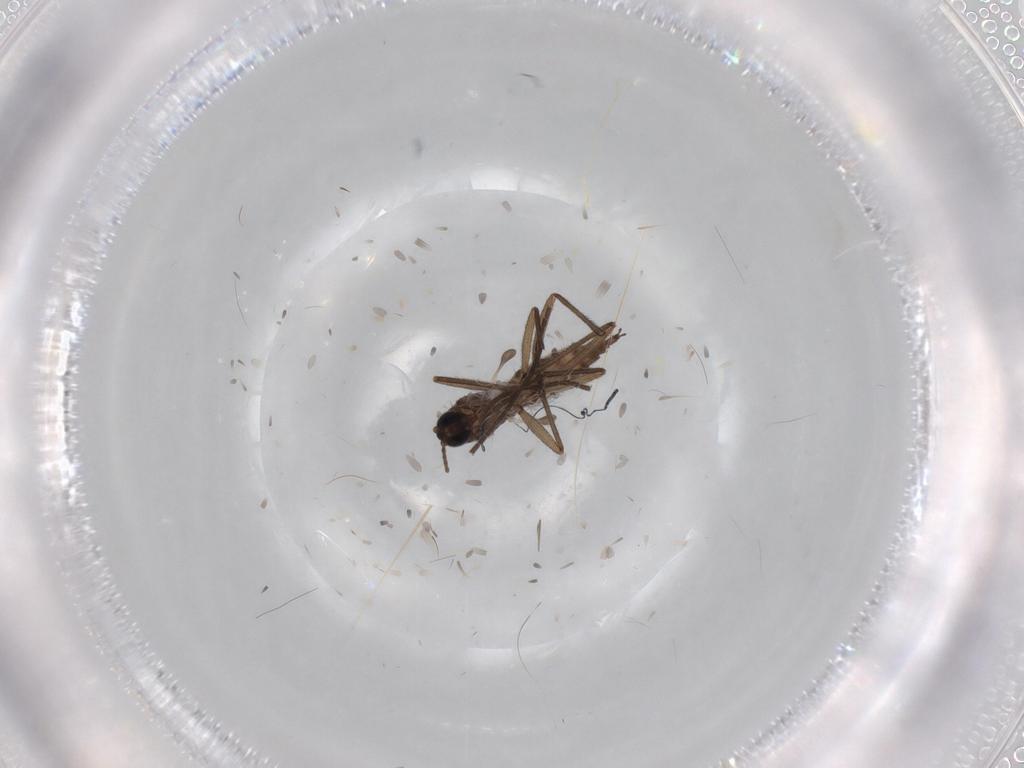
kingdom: Animalia
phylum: Arthropoda
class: Insecta
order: Diptera
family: Sciaridae
